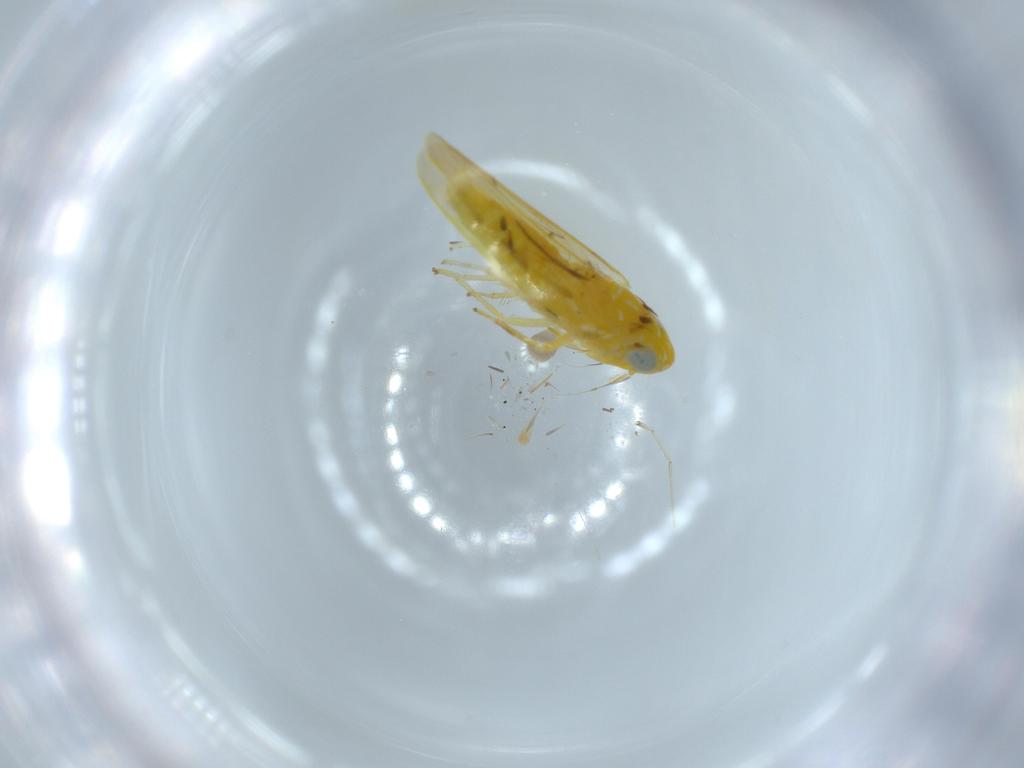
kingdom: Animalia
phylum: Arthropoda
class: Insecta
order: Hemiptera
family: Cicadellidae
